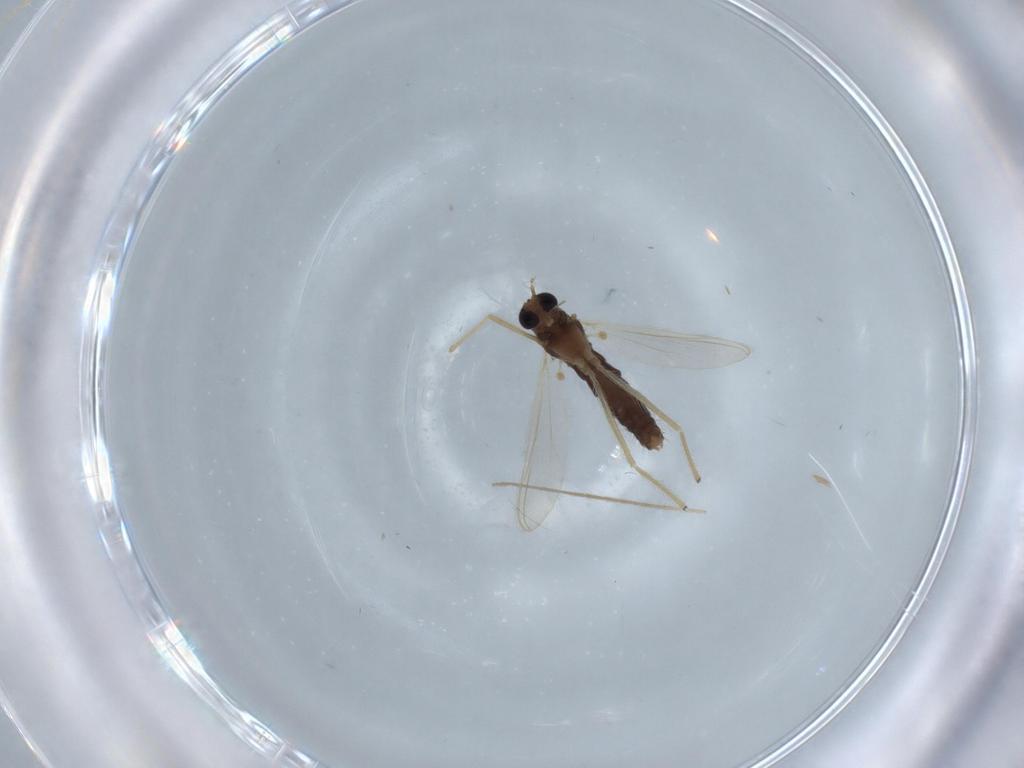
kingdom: Animalia
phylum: Arthropoda
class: Insecta
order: Diptera
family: Chironomidae
